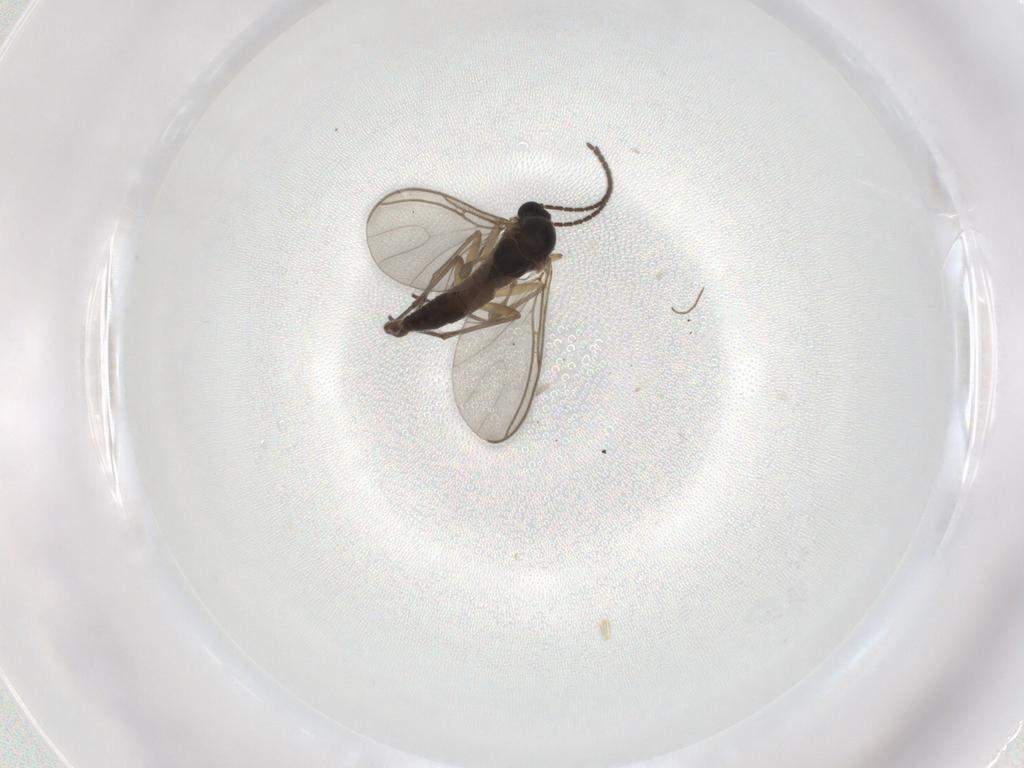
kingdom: Animalia
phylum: Arthropoda
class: Insecta
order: Diptera
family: Sciaridae
